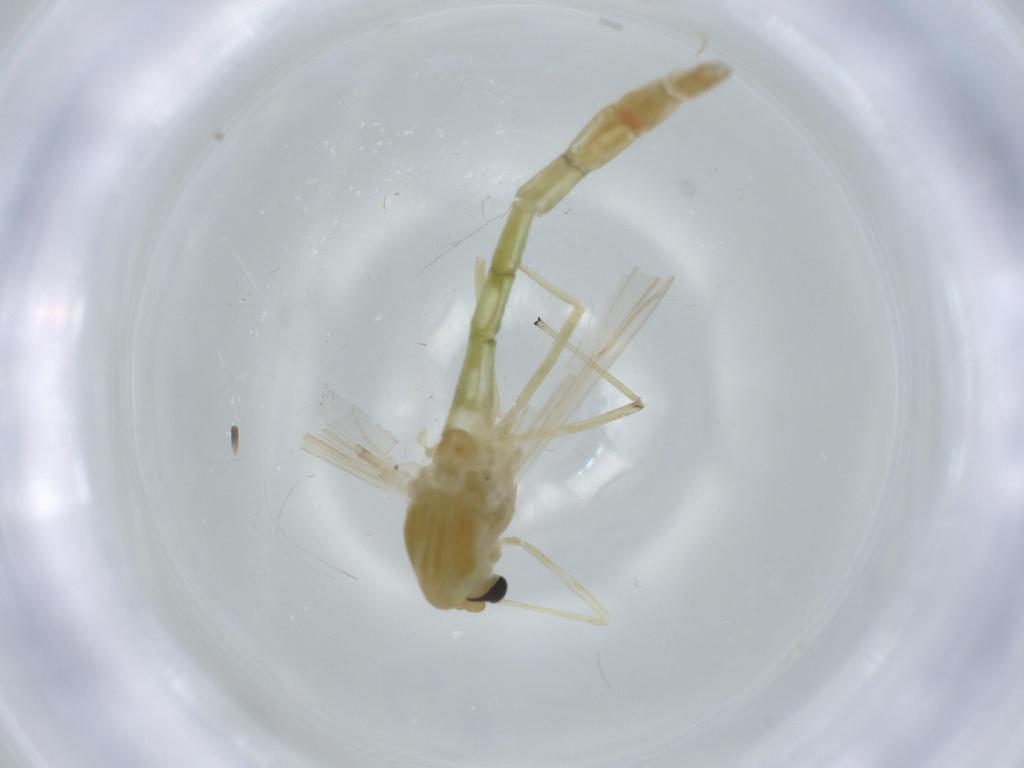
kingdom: Animalia
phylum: Arthropoda
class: Insecta
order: Diptera
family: Chironomidae
